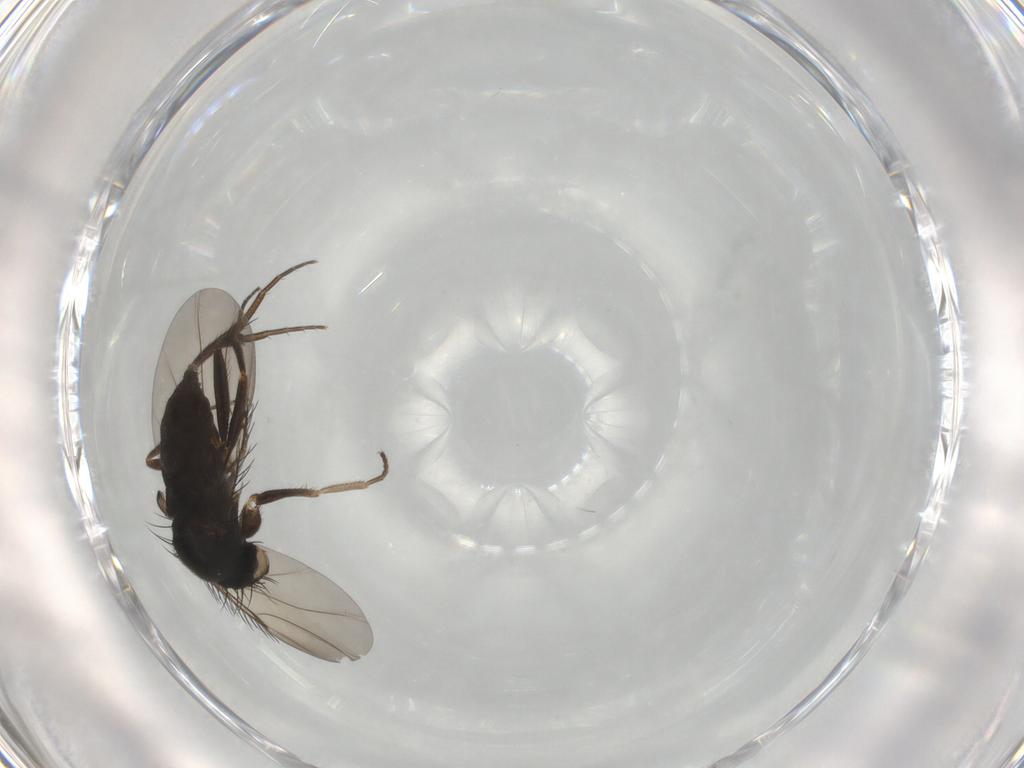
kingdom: Animalia
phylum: Arthropoda
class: Insecta
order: Diptera
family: Phoridae
